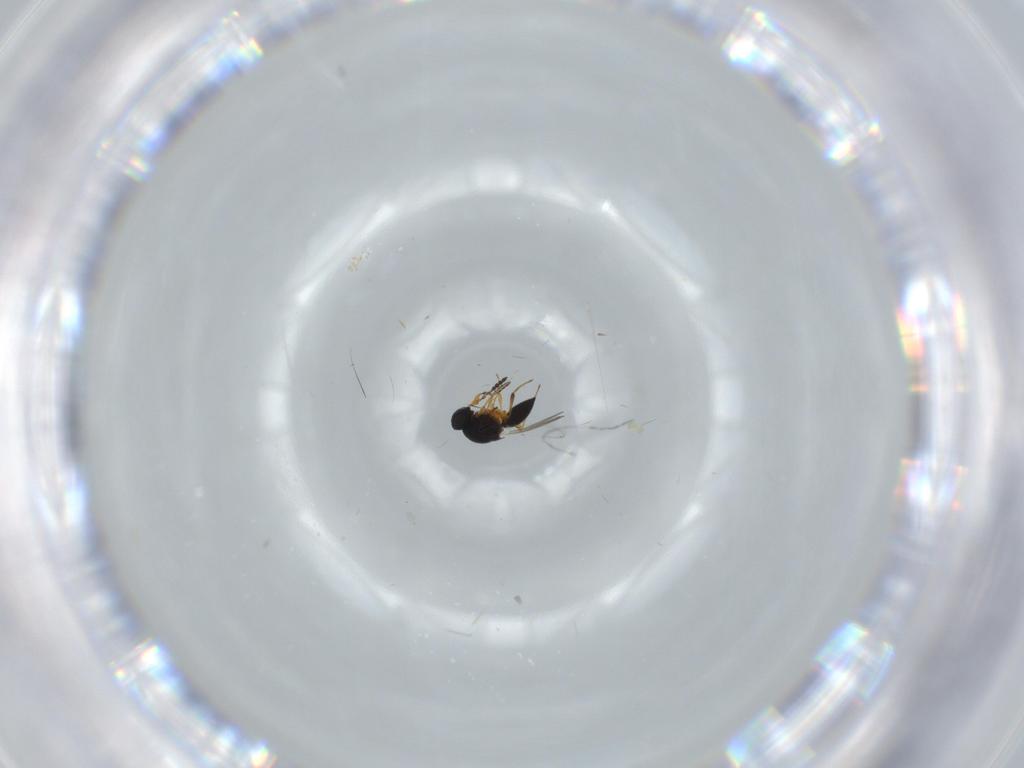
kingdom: Animalia
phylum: Arthropoda
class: Insecta
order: Hymenoptera
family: Platygastridae
